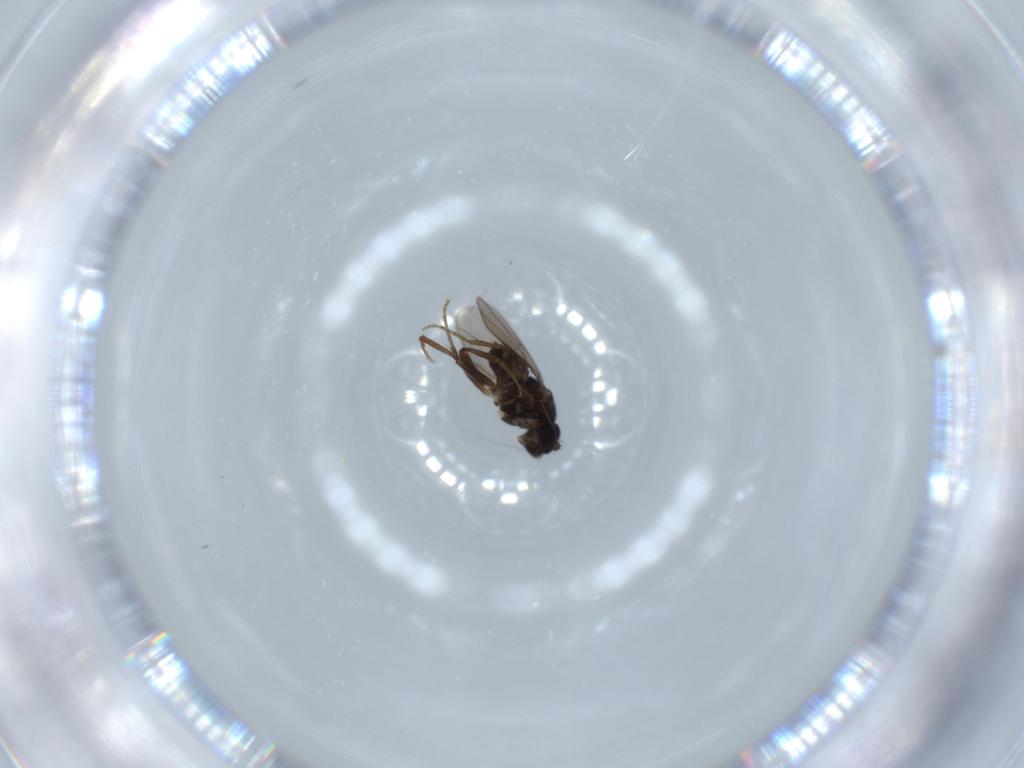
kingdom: Animalia
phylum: Arthropoda
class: Insecta
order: Diptera
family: Sphaeroceridae
